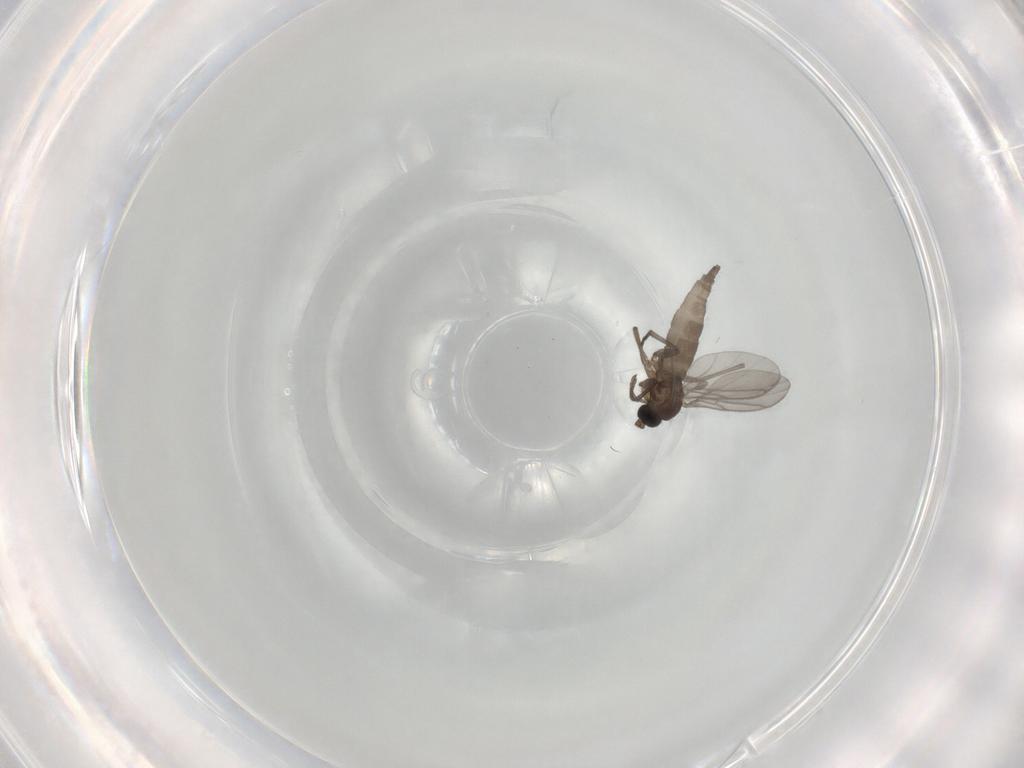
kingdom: Animalia
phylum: Arthropoda
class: Insecta
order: Diptera
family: Sciaridae
